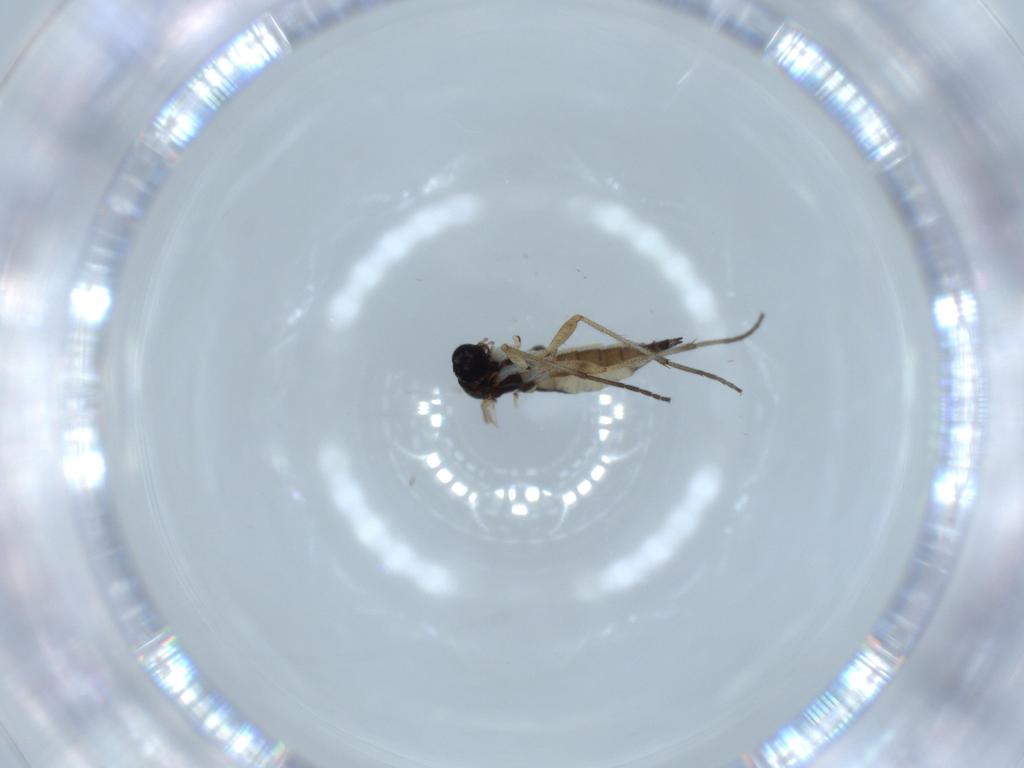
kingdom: Animalia
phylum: Arthropoda
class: Insecta
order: Diptera
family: Sciaridae
